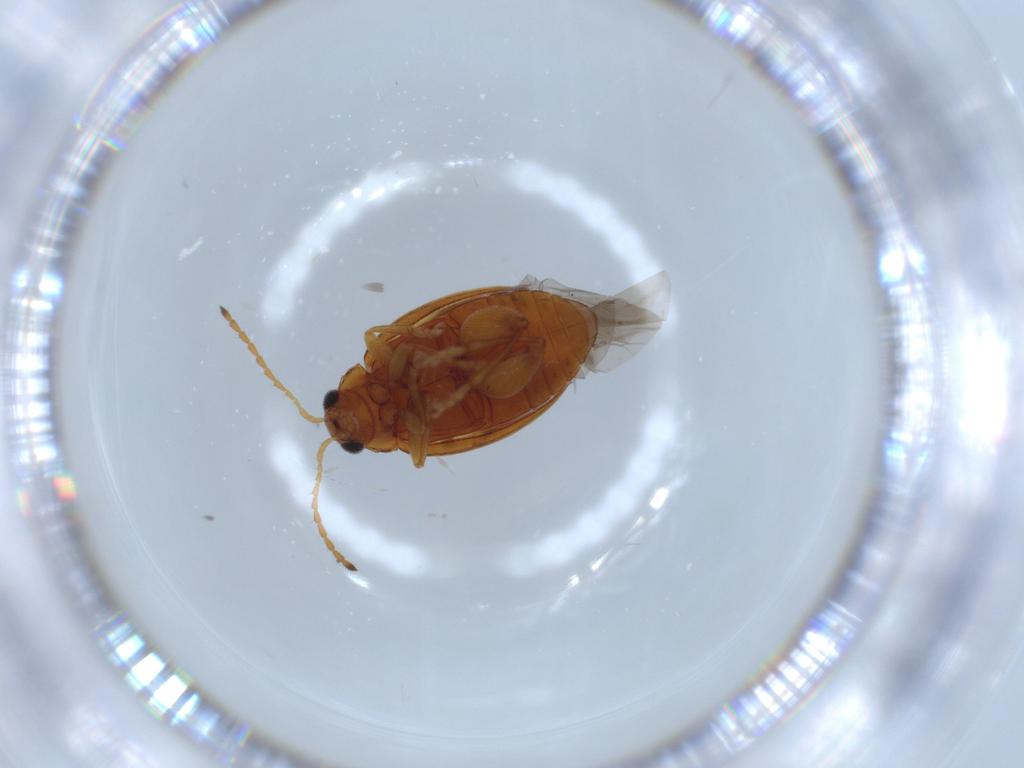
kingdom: Animalia
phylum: Arthropoda
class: Insecta
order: Coleoptera
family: Chrysomelidae
